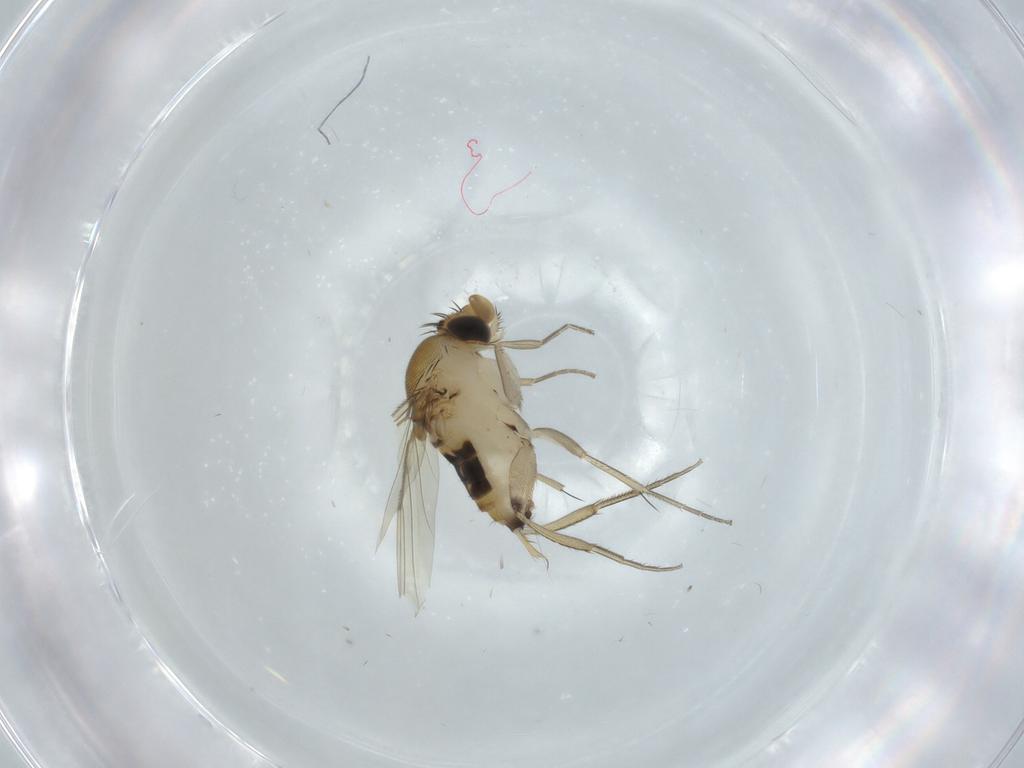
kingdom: Animalia
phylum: Arthropoda
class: Insecta
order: Diptera
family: Phoridae
